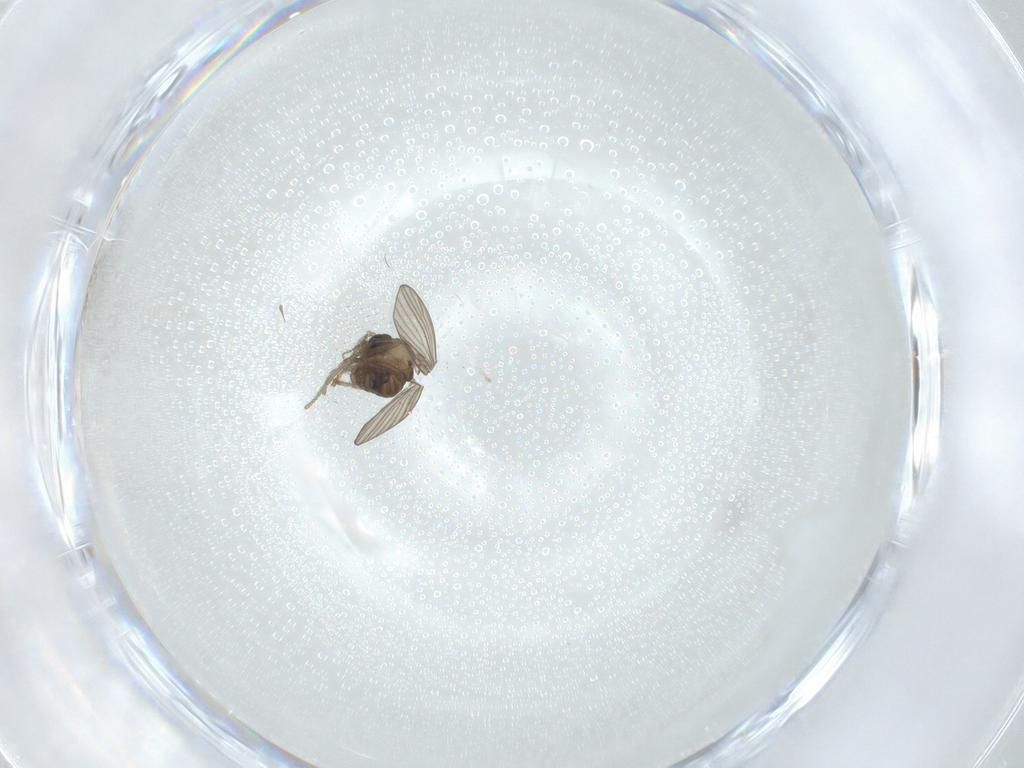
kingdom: Animalia
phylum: Arthropoda
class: Insecta
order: Diptera
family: Psychodidae
